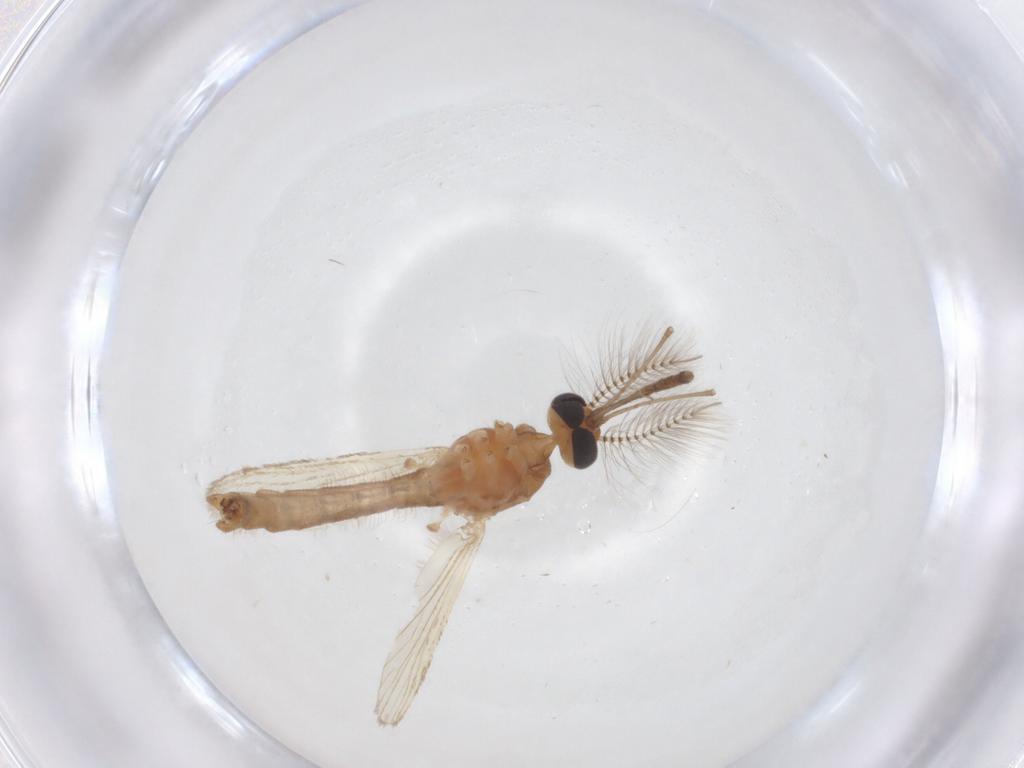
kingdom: Animalia
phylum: Arthropoda
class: Insecta
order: Diptera
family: Culicidae
